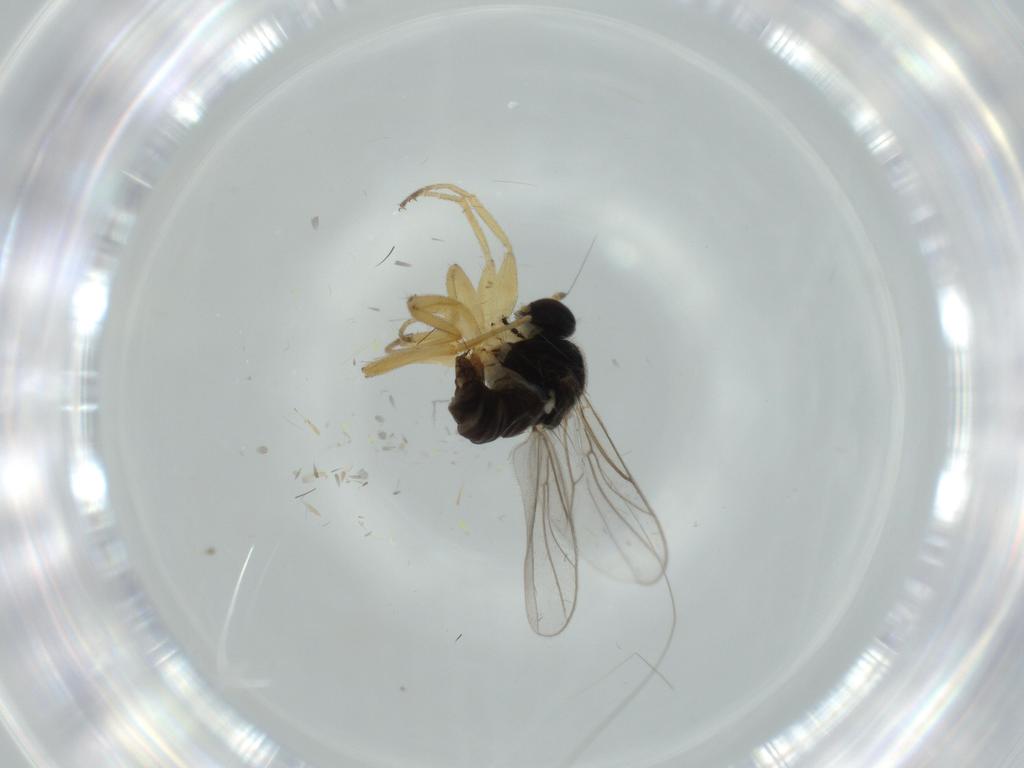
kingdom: Animalia
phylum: Arthropoda
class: Insecta
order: Diptera
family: Hybotidae
